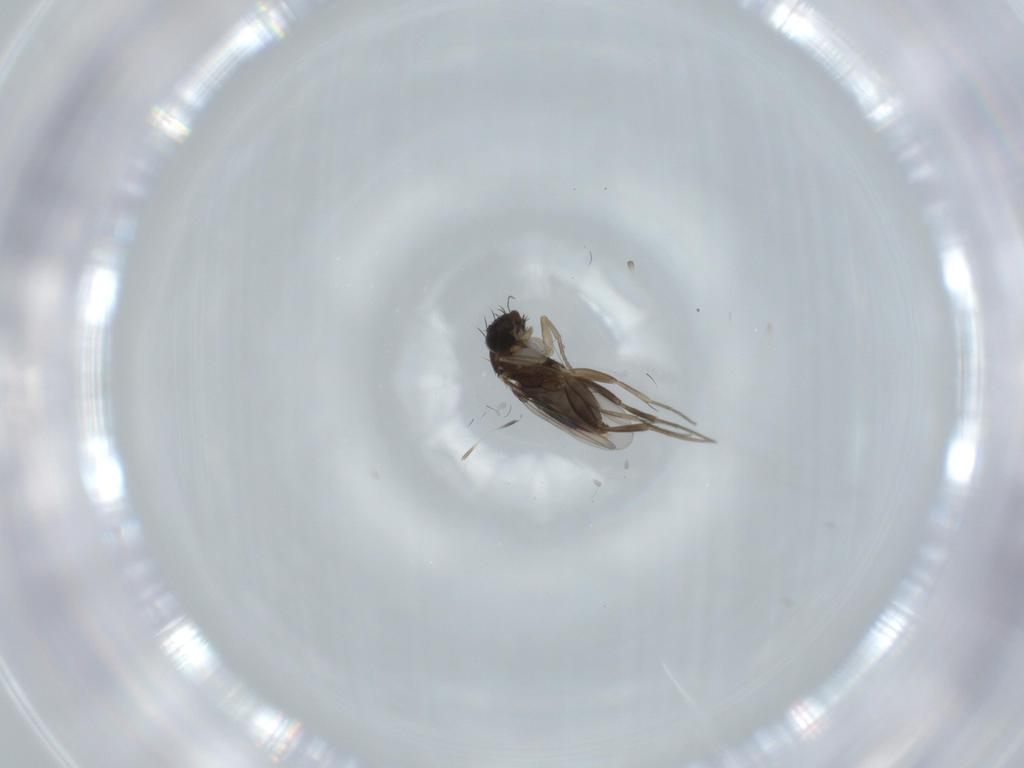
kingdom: Animalia
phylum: Arthropoda
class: Insecta
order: Diptera
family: Phoridae
